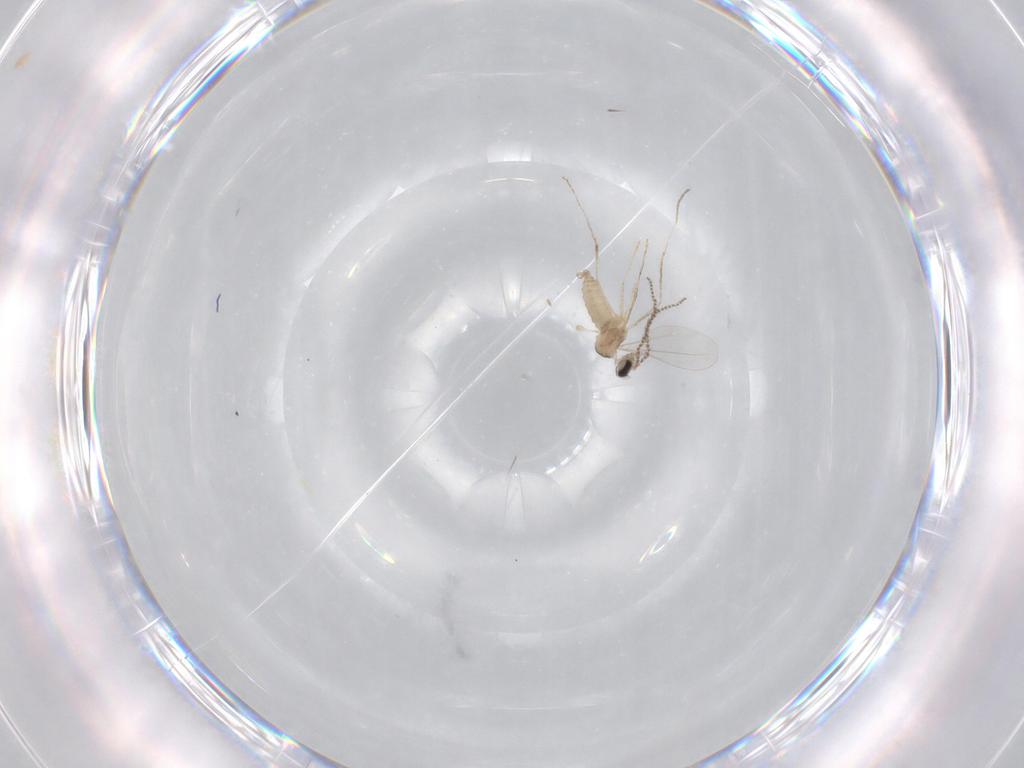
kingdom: Animalia
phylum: Arthropoda
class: Insecta
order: Diptera
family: Cecidomyiidae
